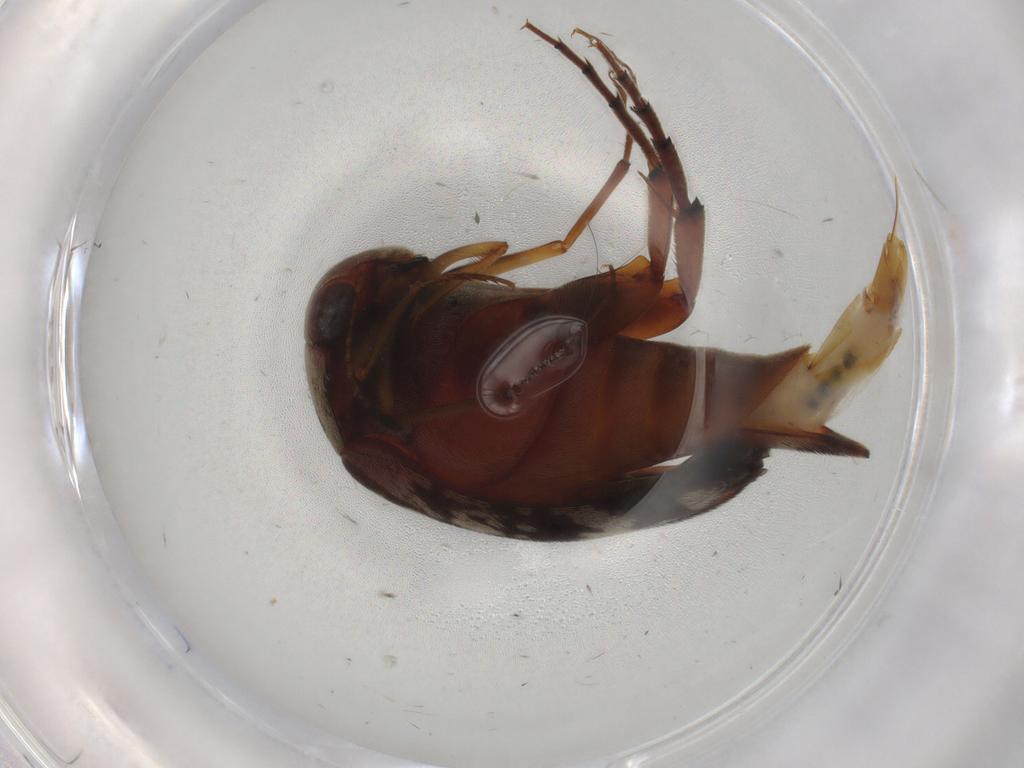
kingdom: Animalia
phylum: Arthropoda
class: Insecta
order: Coleoptera
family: Mordellidae
